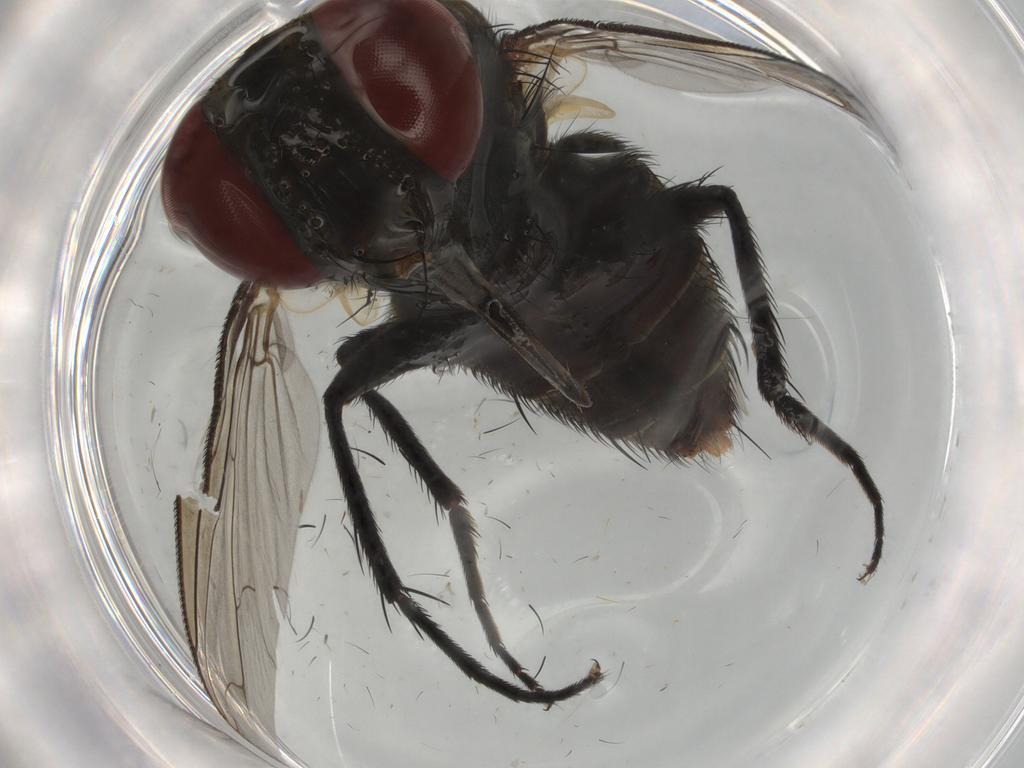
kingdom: Animalia
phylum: Arthropoda
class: Insecta
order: Diptera
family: Sarcophagidae
